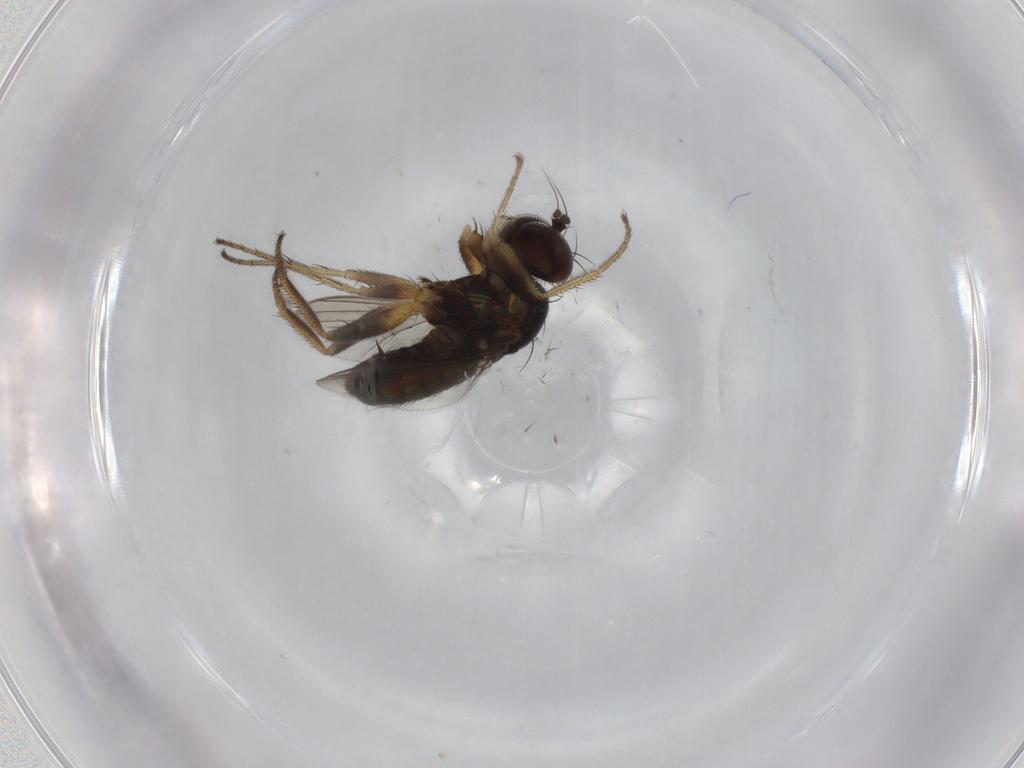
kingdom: Animalia
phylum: Arthropoda
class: Insecta
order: Diptera
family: Dolichopodidae
